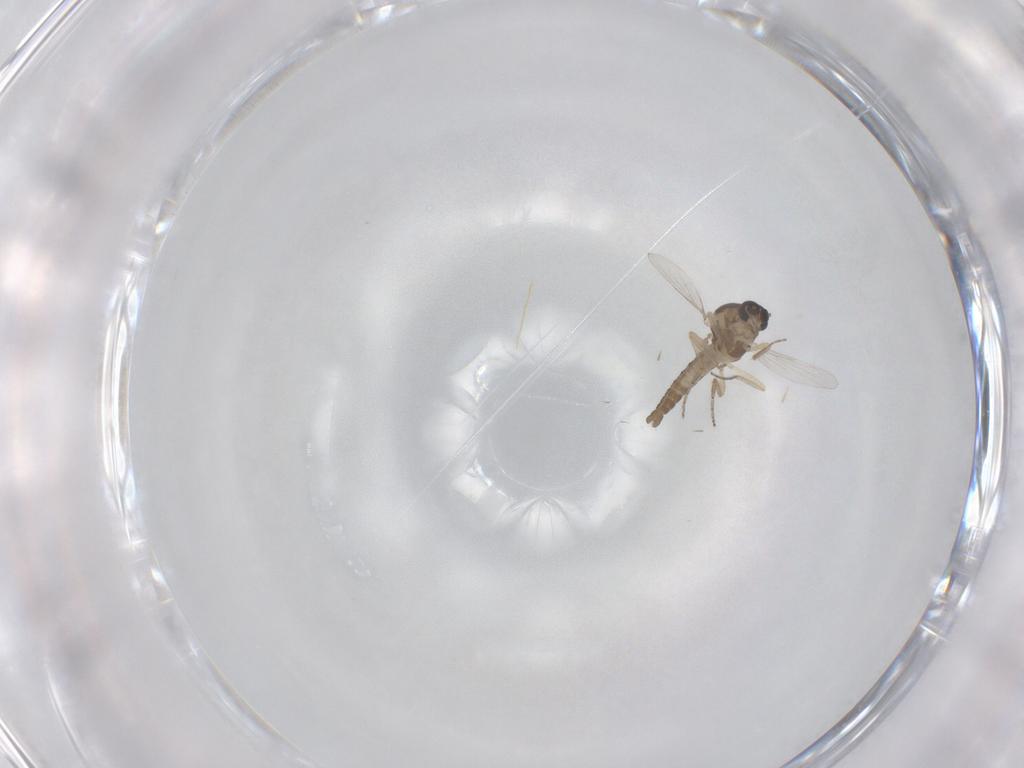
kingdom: Animalia
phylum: Arthropoda
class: Insecta
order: Diptera
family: Ceratopogonidae
